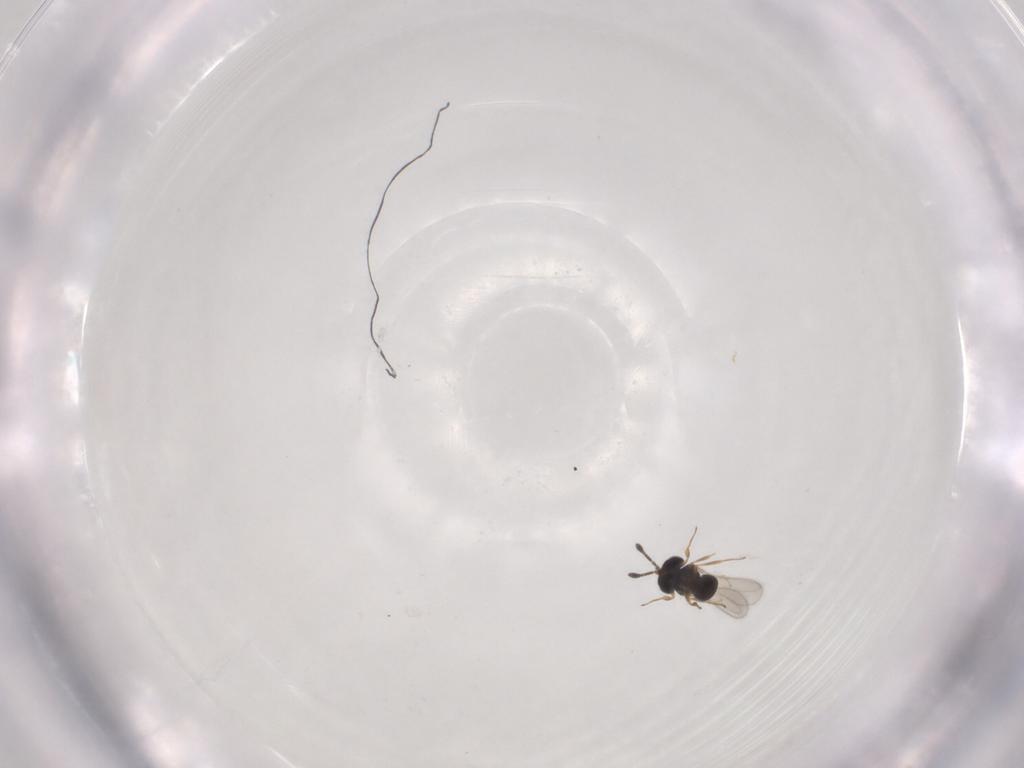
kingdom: Animalia
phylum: Arthropoda
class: Insecta
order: Hymenoptera
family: Scelionidae
